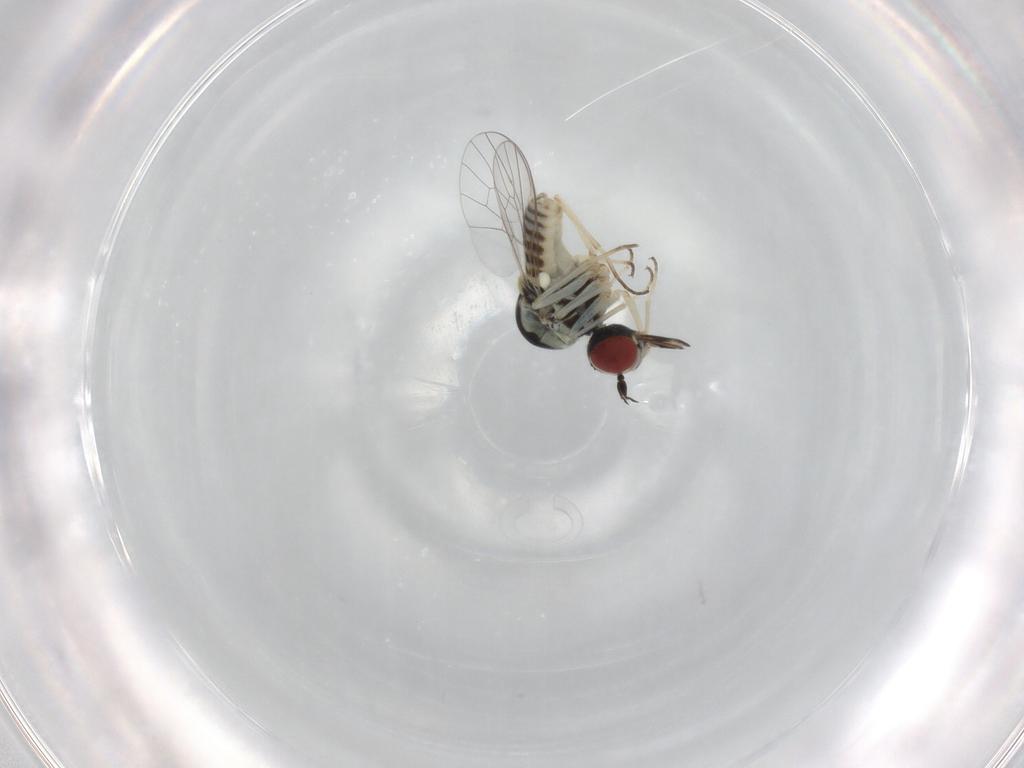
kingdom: Animalia
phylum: Arthropoda
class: Insecta
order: Diptera
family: Mythicomyiidae
